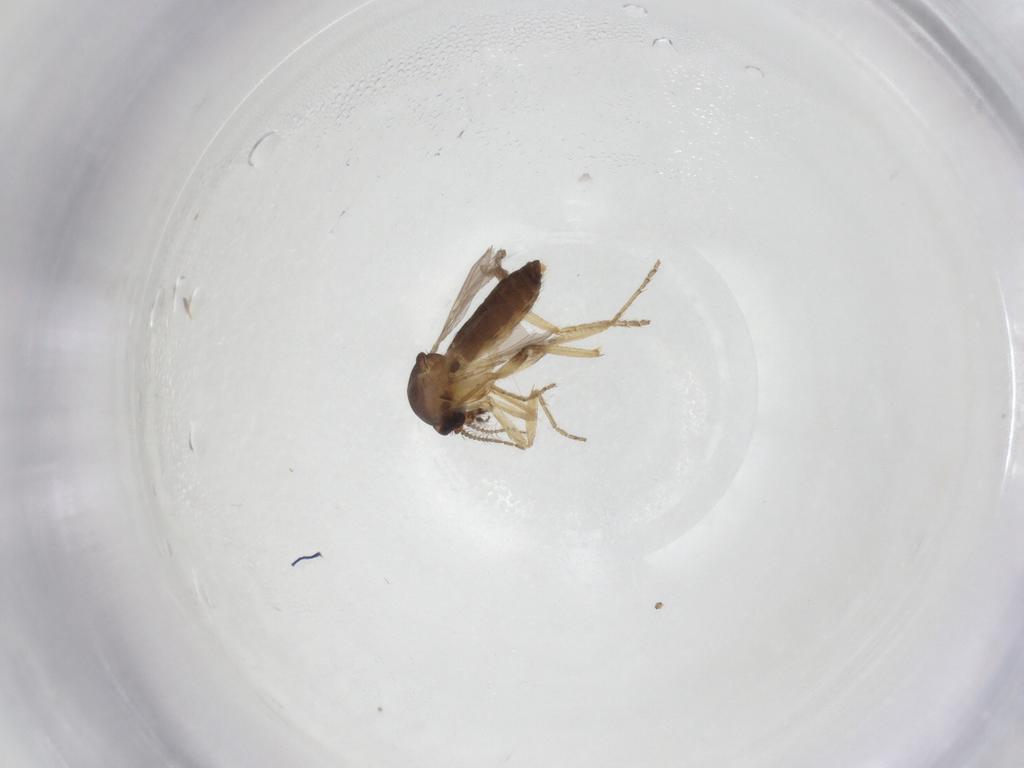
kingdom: Animalia
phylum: Arthropoda
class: Insecta
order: Diptera
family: Ceratopogonidae
